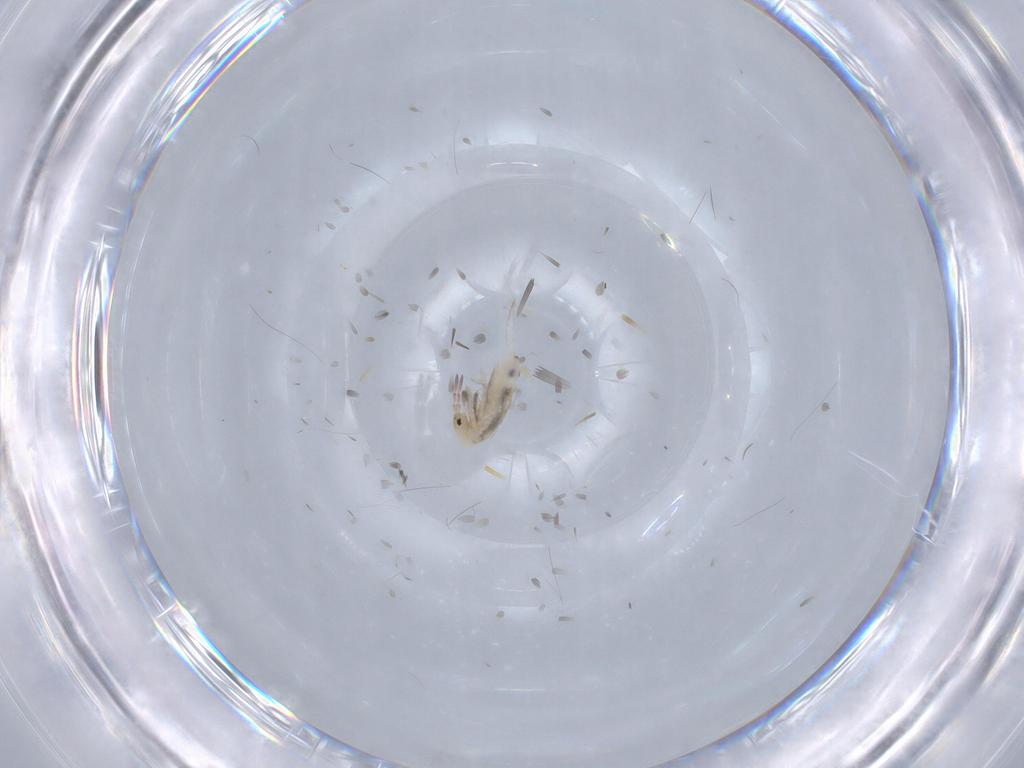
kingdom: Animalia
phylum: Arthropoda
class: Collembola
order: Entomobryomorpha
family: Entomobryidae
